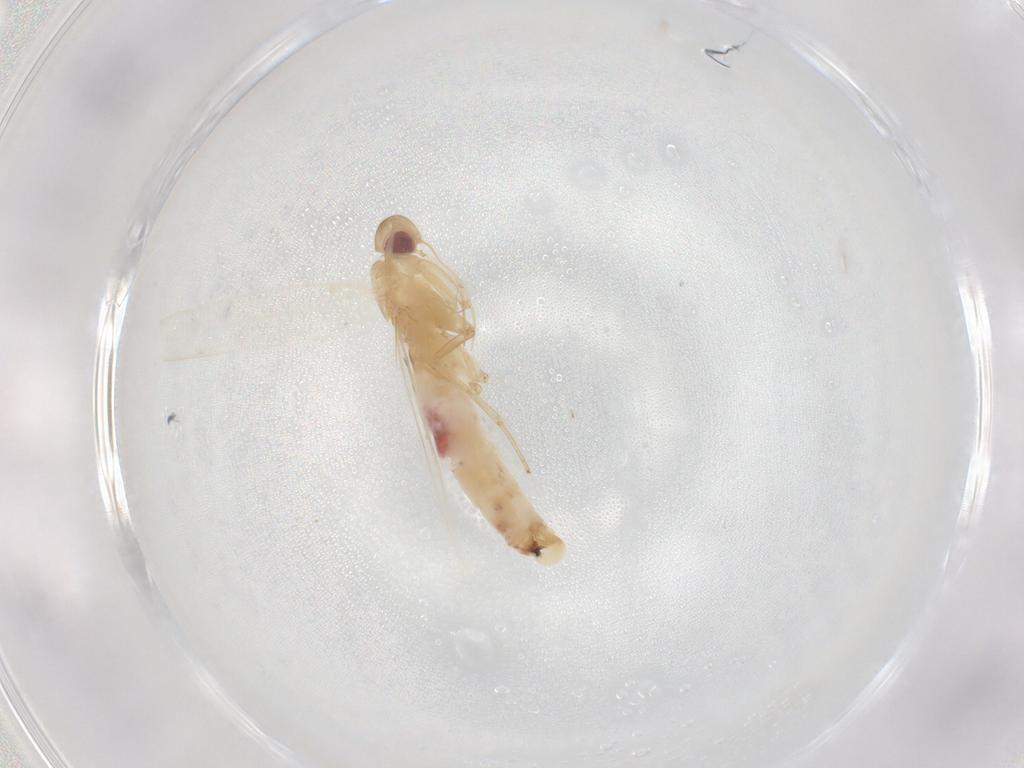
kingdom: Animalia
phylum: Arthropoda
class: Insecta
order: Lepidoptera
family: Cosmopterigidae
